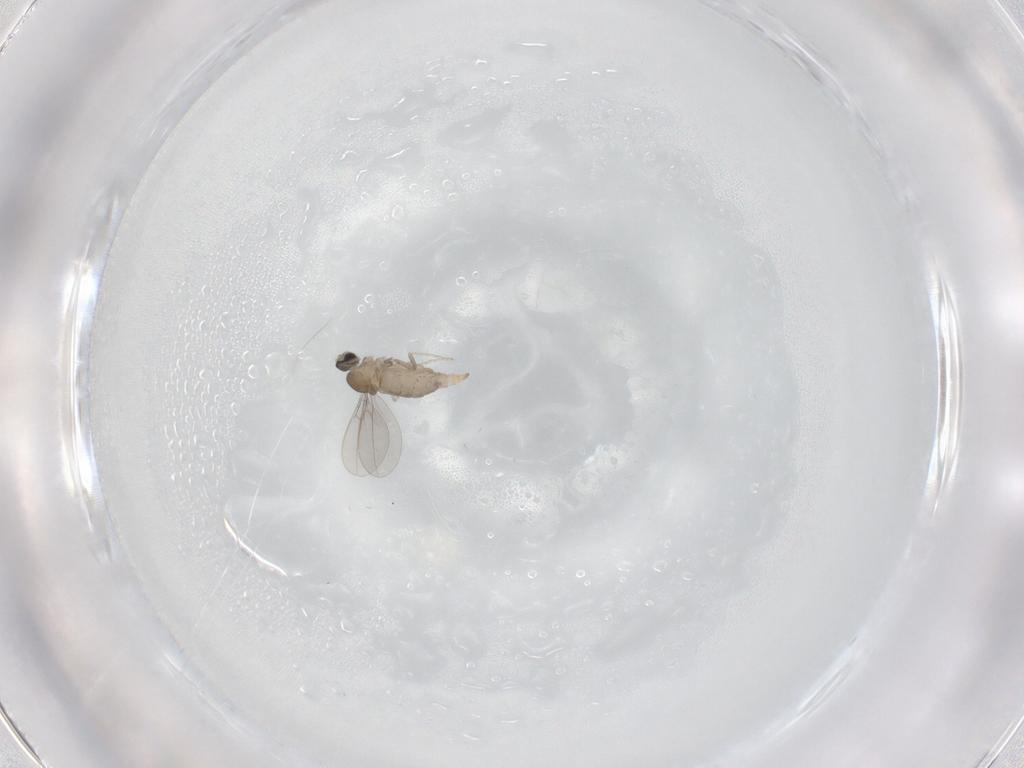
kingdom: Animalia
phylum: Arthropoda
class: Insecta
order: Diptera
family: Cecidomyiidae
